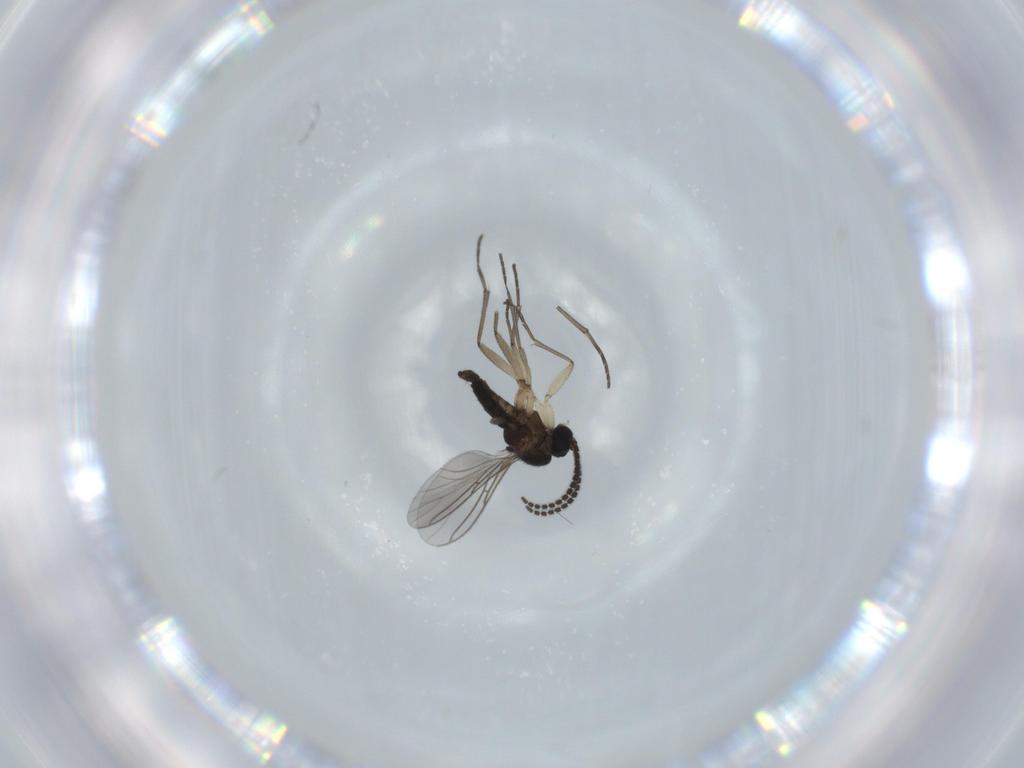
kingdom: Animalia
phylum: Arthropoda
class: Insecta
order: Diptera
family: Sciaridae
